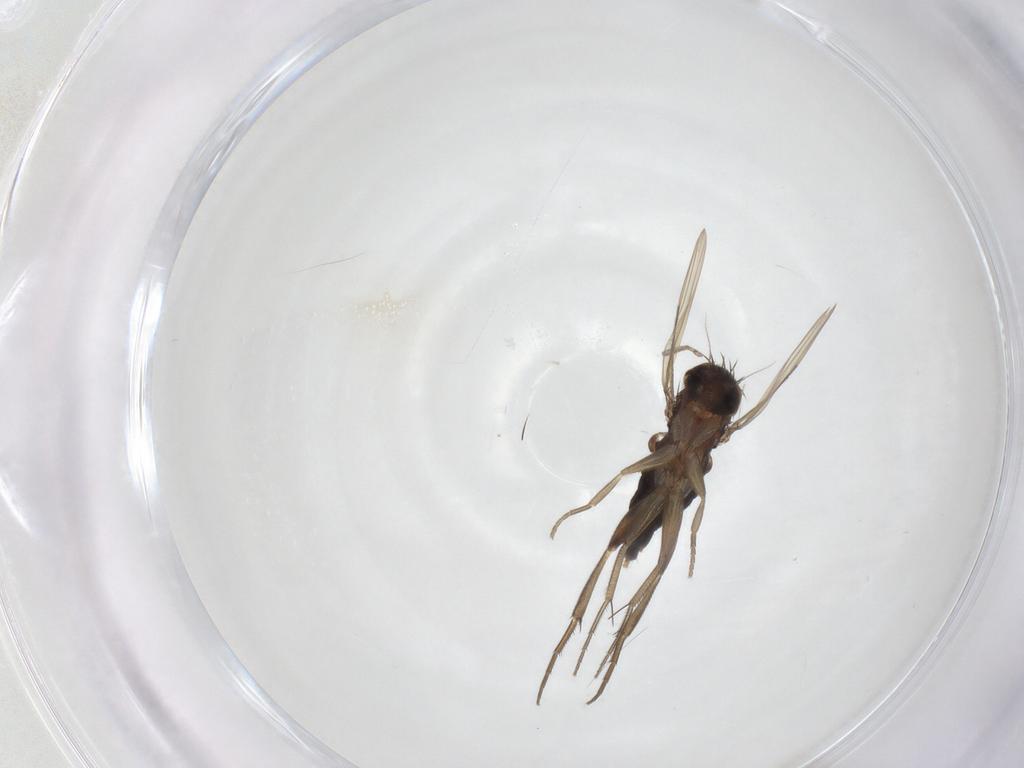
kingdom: Animalia
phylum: Arthropoda
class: Insecta
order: Diptera
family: Phoridae
